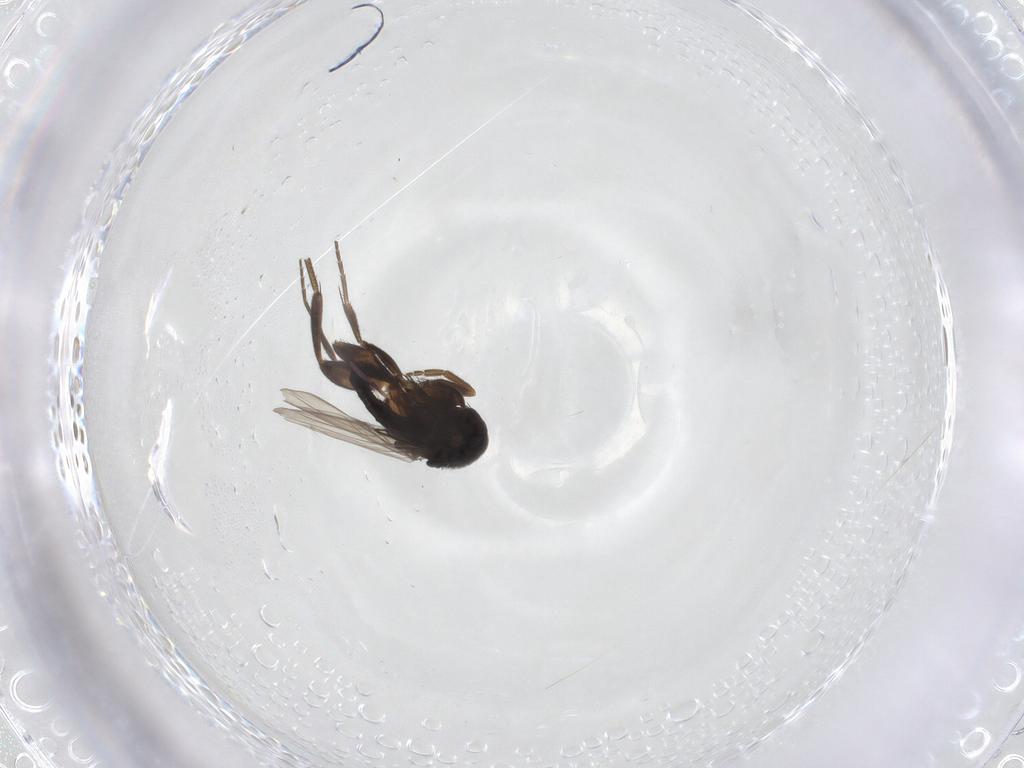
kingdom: Animalia
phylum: Arthropoda
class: Insecta
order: Diptera
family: Phoridae
